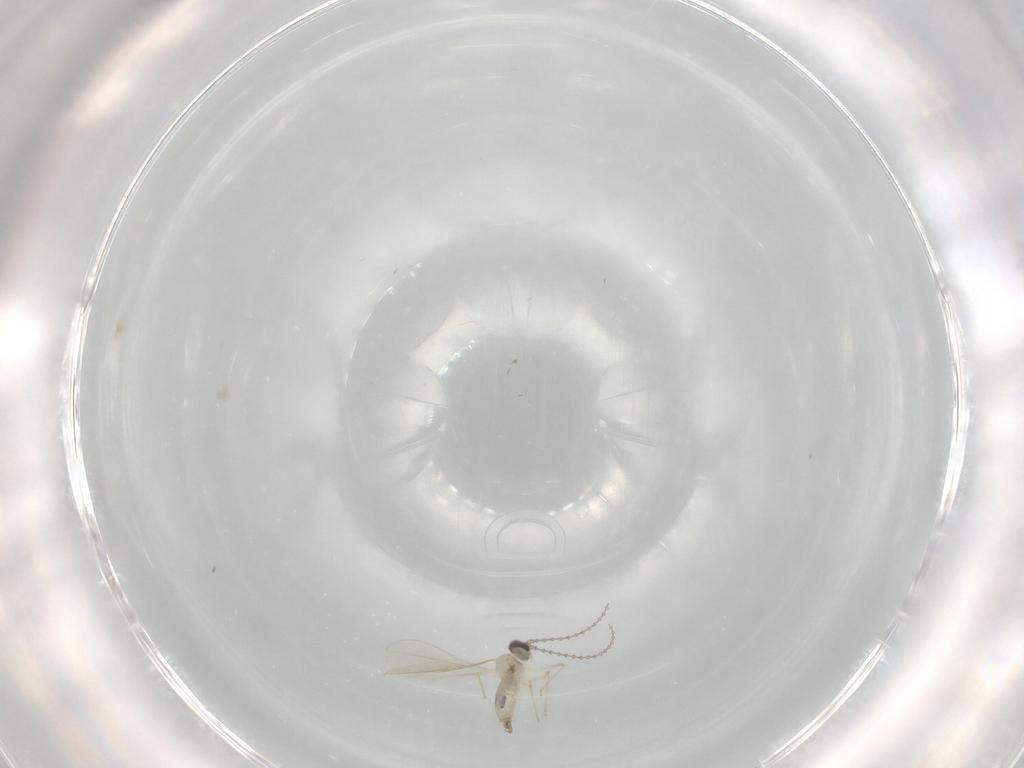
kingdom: Animalia
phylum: Arthropoda
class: Insecta
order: Diptera
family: Cecidomyiidae
